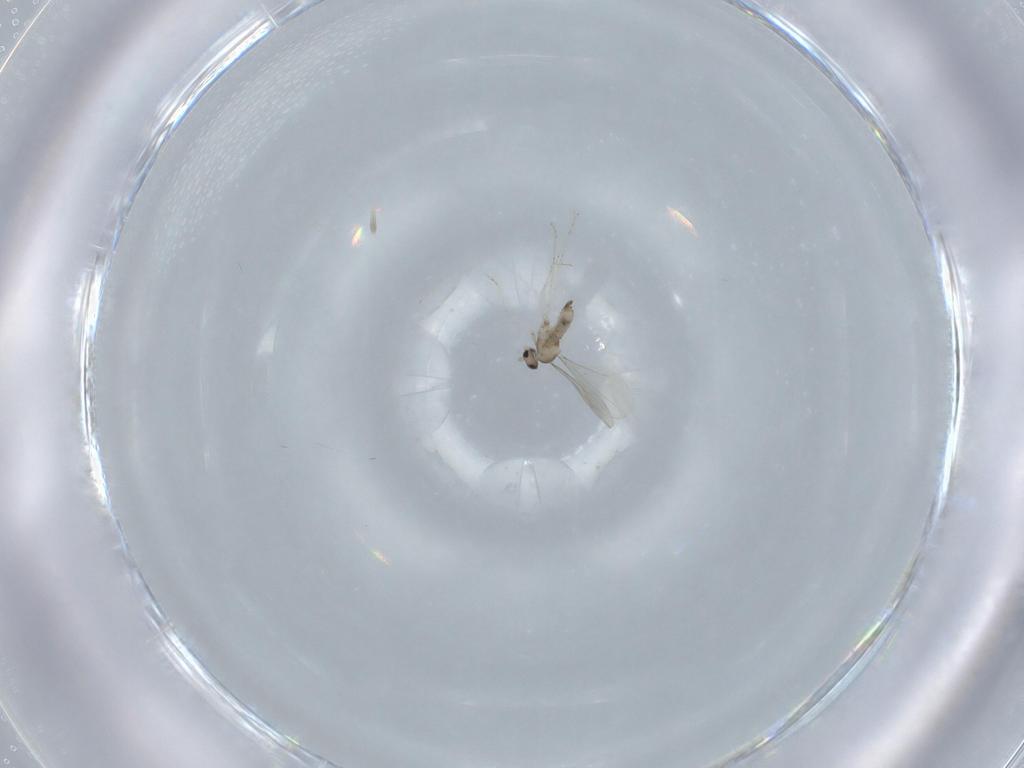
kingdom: Animalia
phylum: Arthropoda
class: Insecta
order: Diptera
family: Cecidomyiidae
